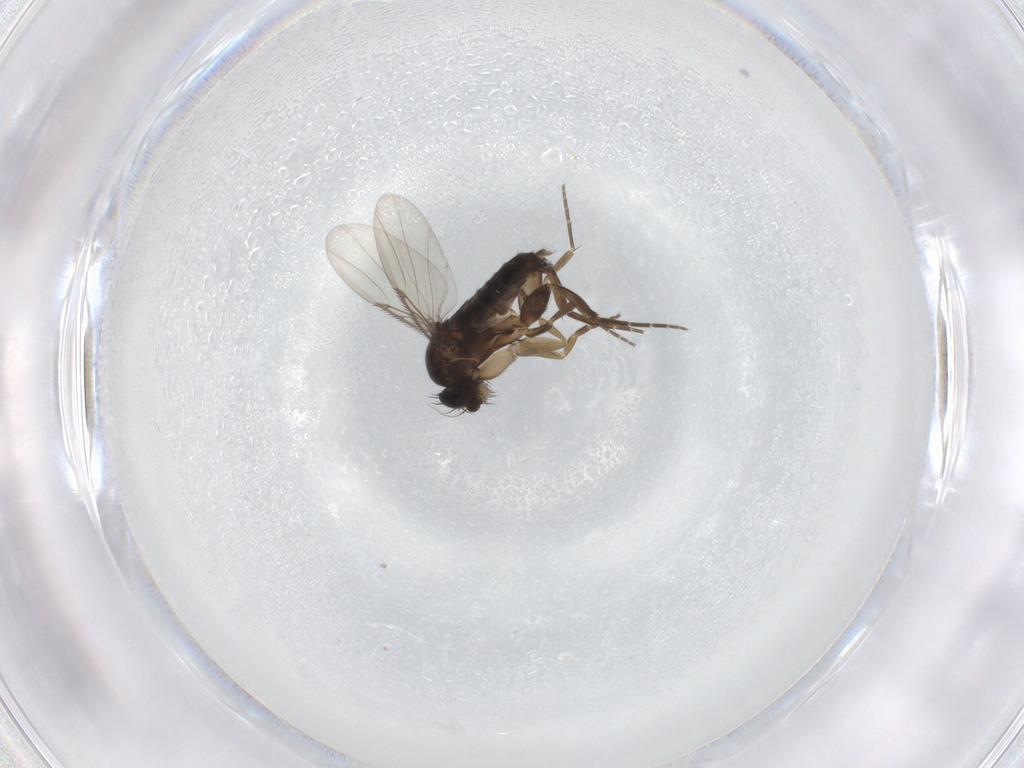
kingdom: Animalia
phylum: Arthropoda
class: Insecta
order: Diptera
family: Phoridae
